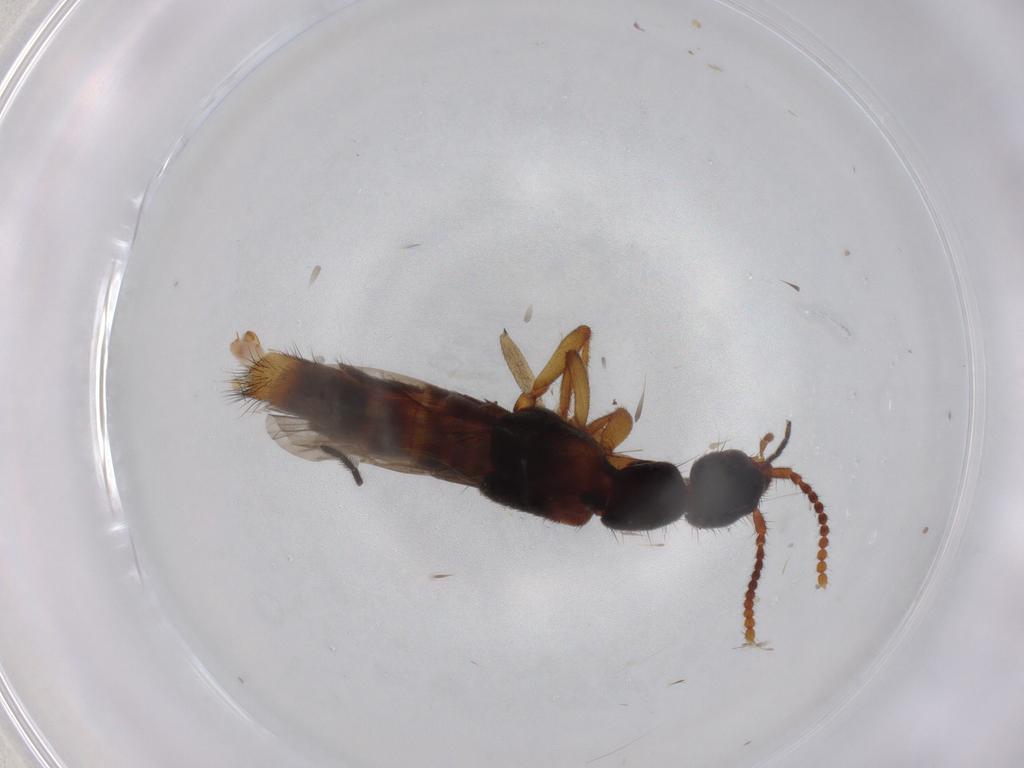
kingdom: Animalia
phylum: Arthropoda
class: Insecta
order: Coleoptera
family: Staphylinidae
